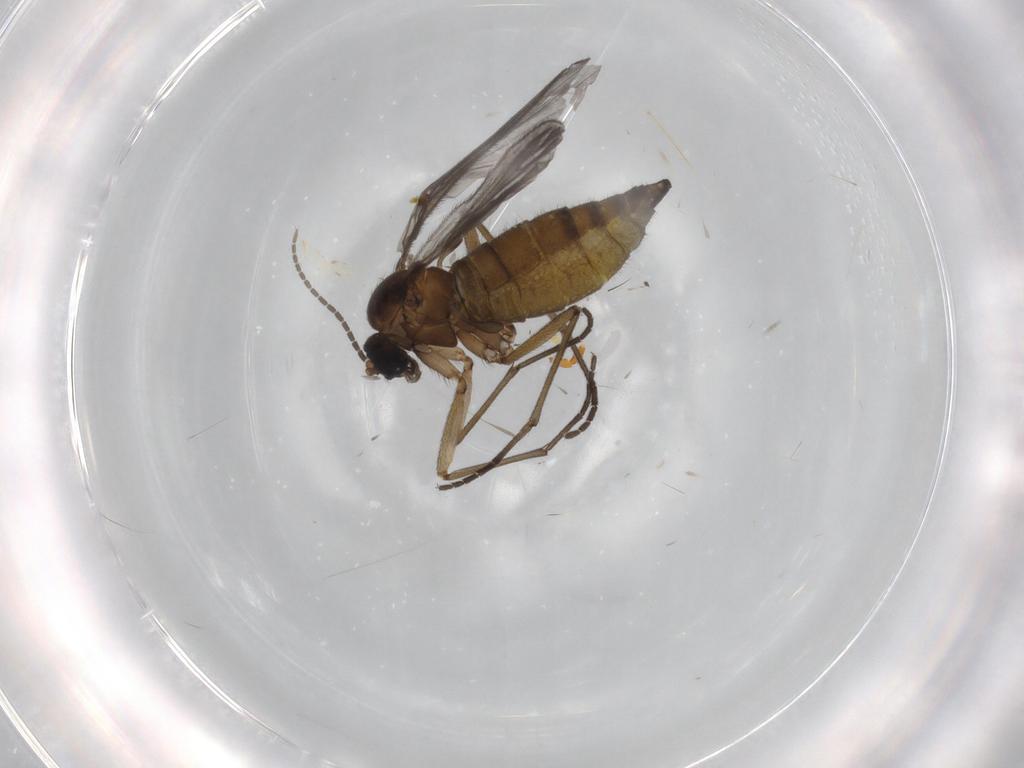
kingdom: Animalia
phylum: Arthropoda
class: Insecta
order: Diptera
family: Sciaridae
